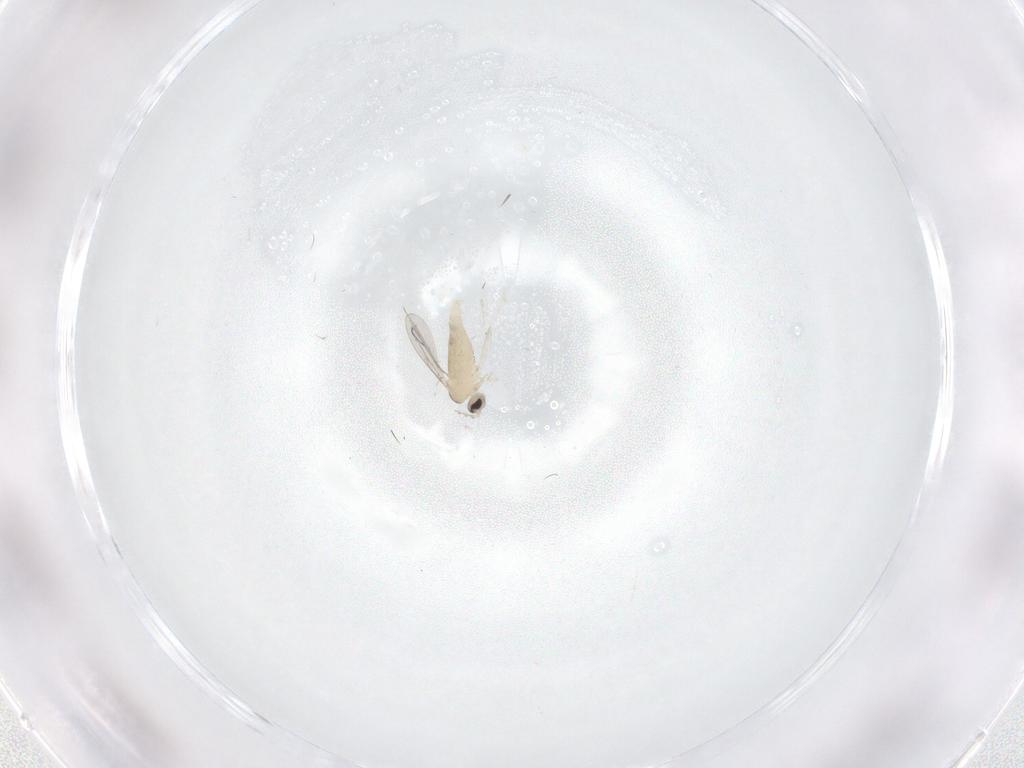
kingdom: Animalia
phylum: Arthropoda
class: Insecta
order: Diptera
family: Cecidomyiidae
